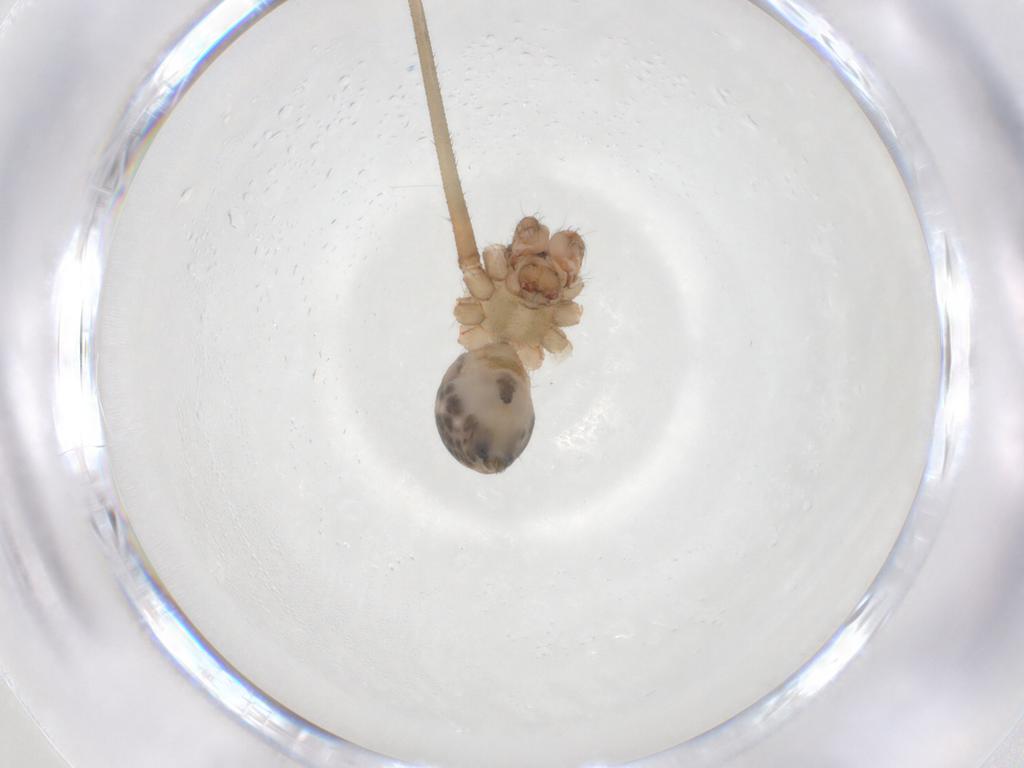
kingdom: Animalia
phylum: Arthropoda
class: Arachnida
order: Araneae
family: Pholcidae
